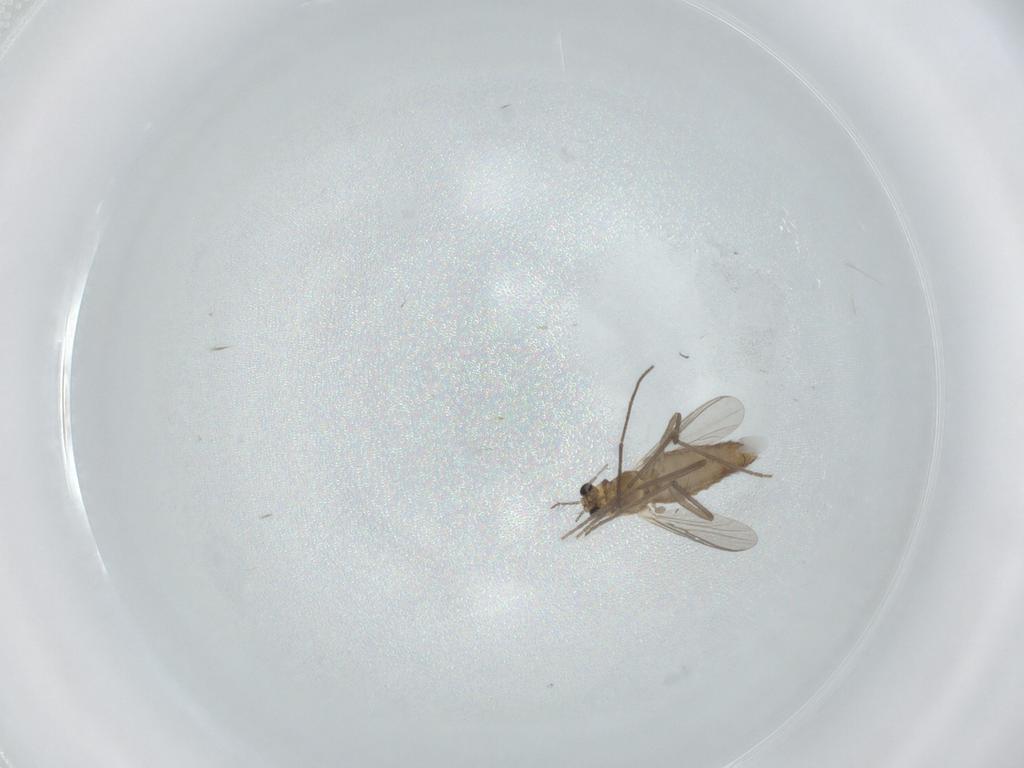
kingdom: Animalia
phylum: Arthropoda
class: Insecta
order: Diptera
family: Chironomidae
